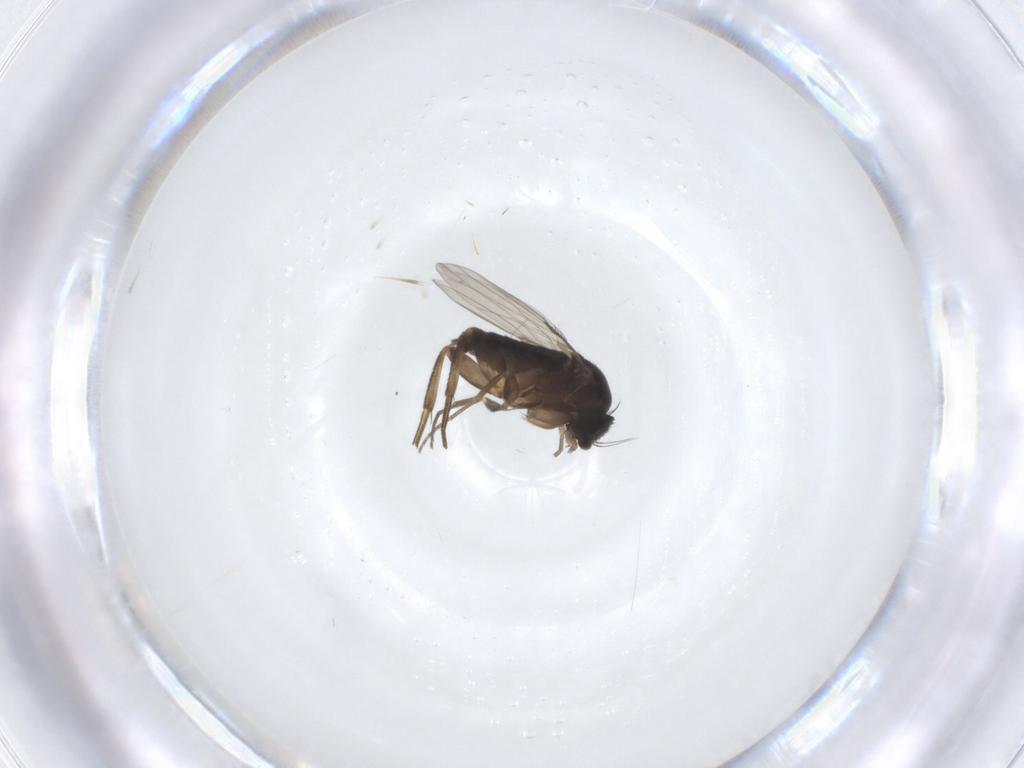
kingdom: Animalia
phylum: Arthropoda
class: Insecta
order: Diptera
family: Phoridae
